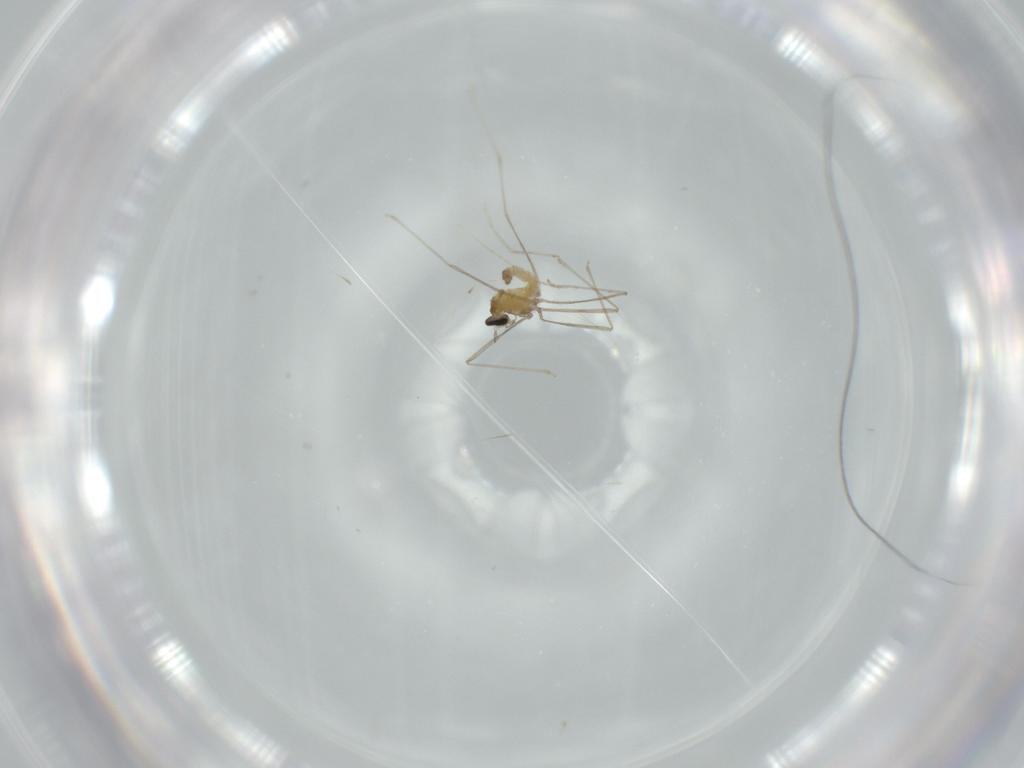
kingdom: Animalia
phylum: Arthropoda
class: Insecta
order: Diptera
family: Cecidomyiidae
